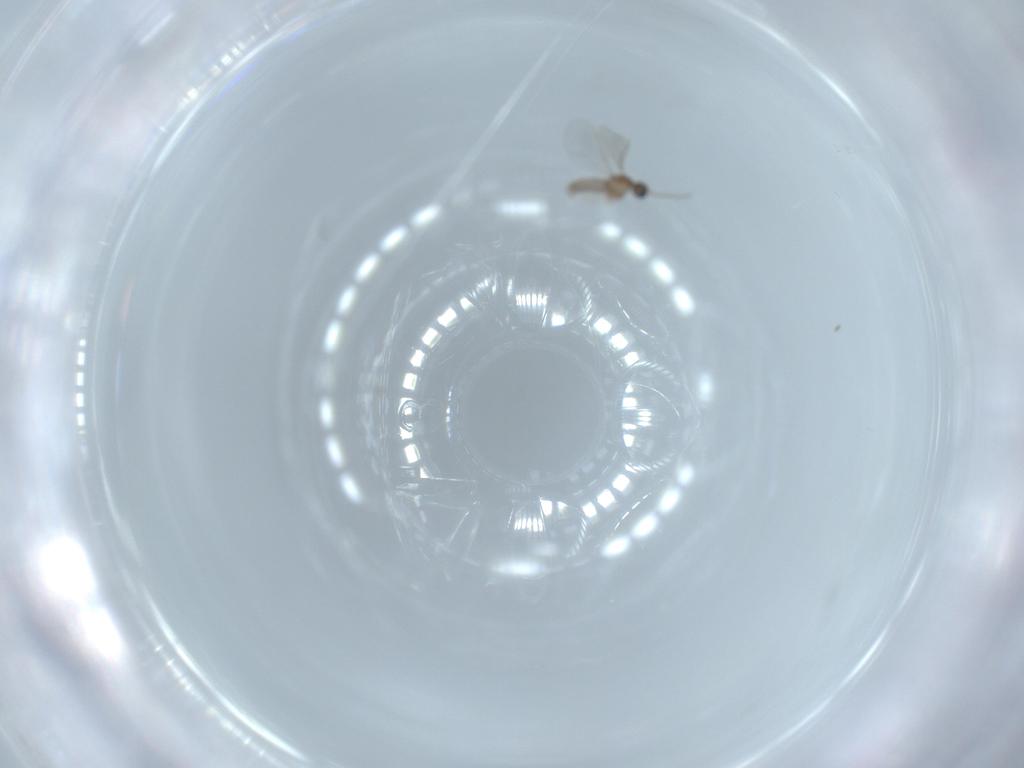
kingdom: Animalia
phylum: Arthropoda
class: Insecta
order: Diptera
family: Cecidomyiidae
